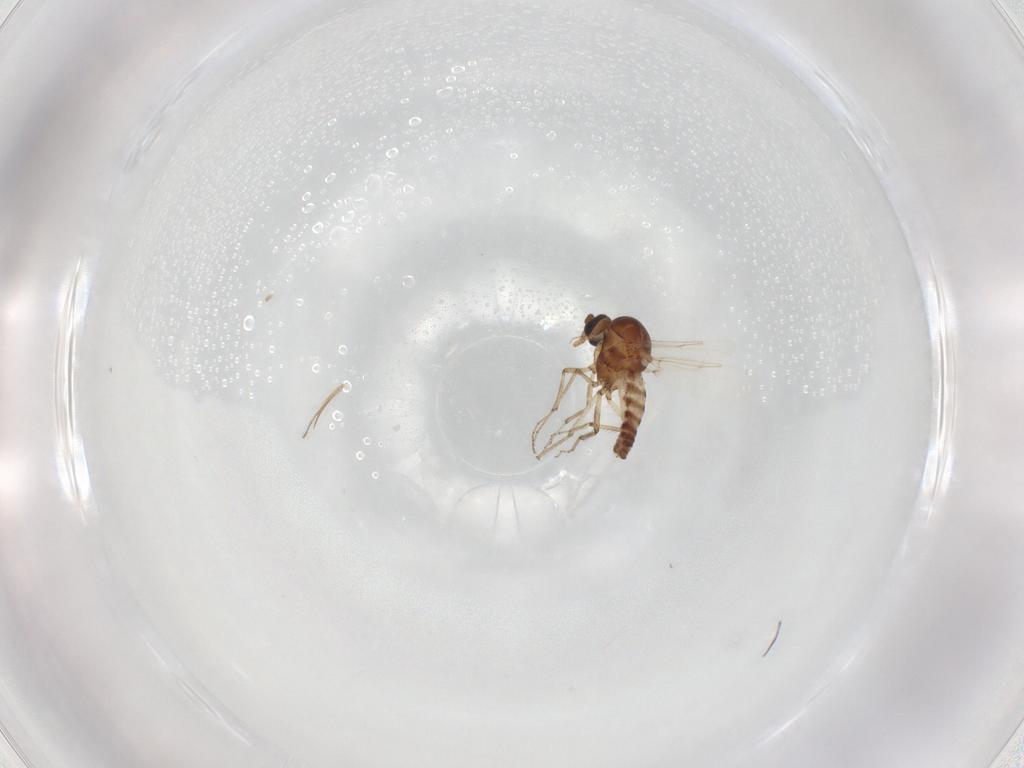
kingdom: Animalia
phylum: Arthropoda
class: Insecta
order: Diptera
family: Ceratopogonidae
